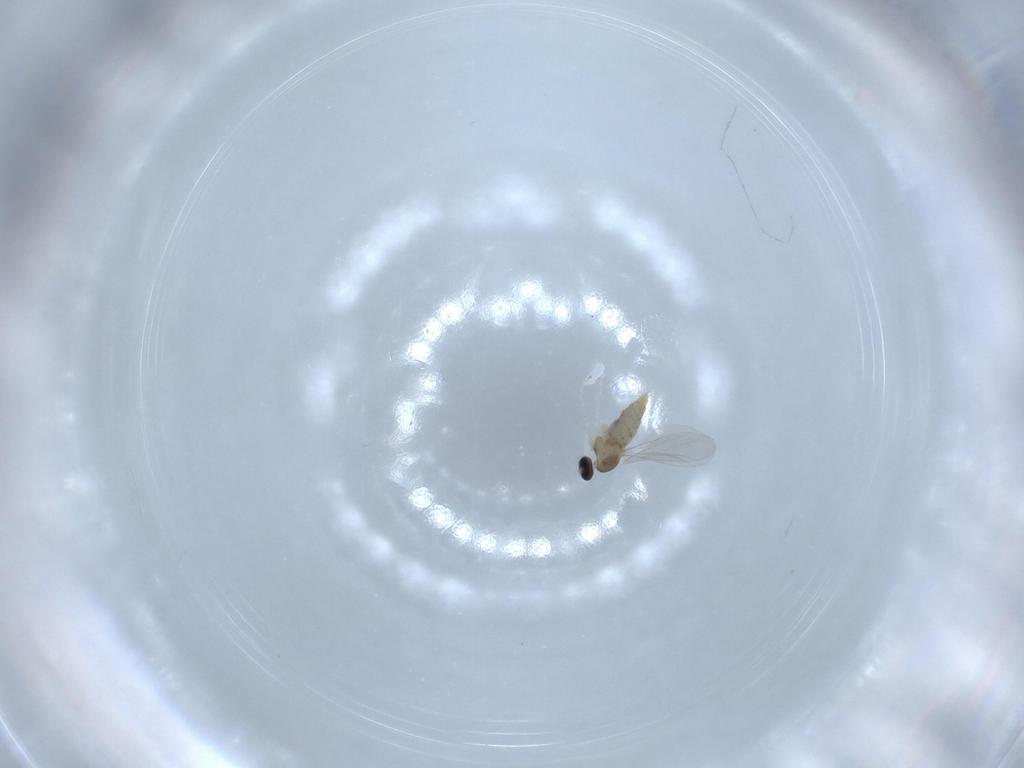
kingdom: Animalia
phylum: Arthropoda
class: Insecta
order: Diptera
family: Cecidomyiidae
